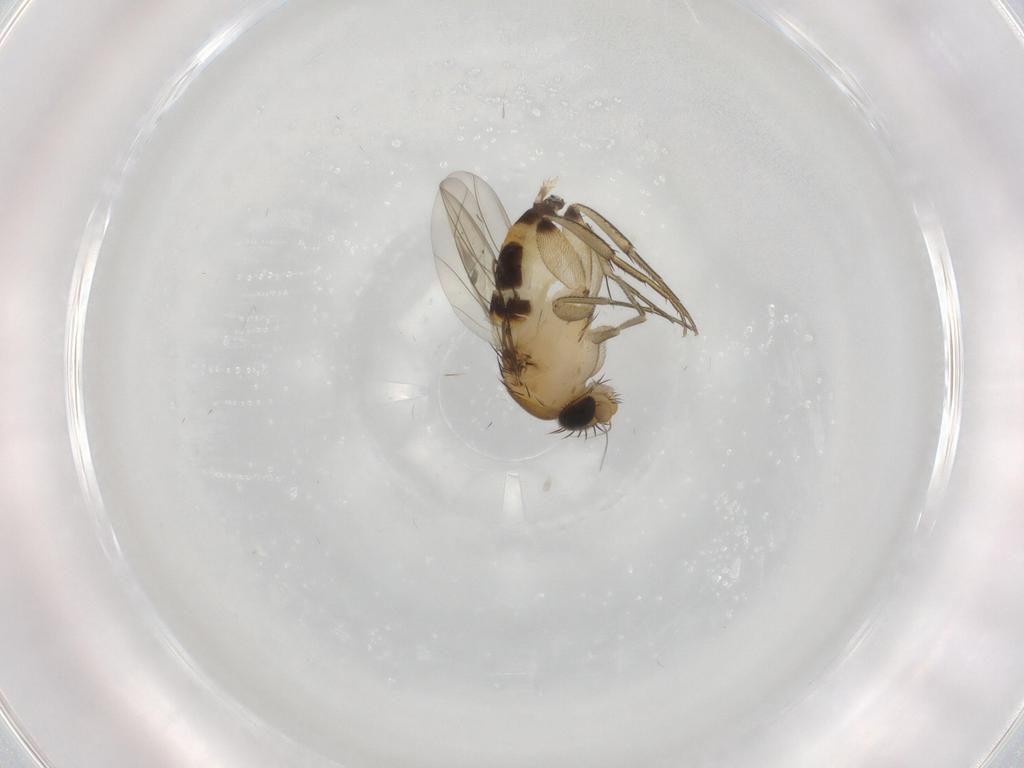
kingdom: Animalia
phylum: Arthropoda
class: Insecta
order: Diptera
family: Phoridae
